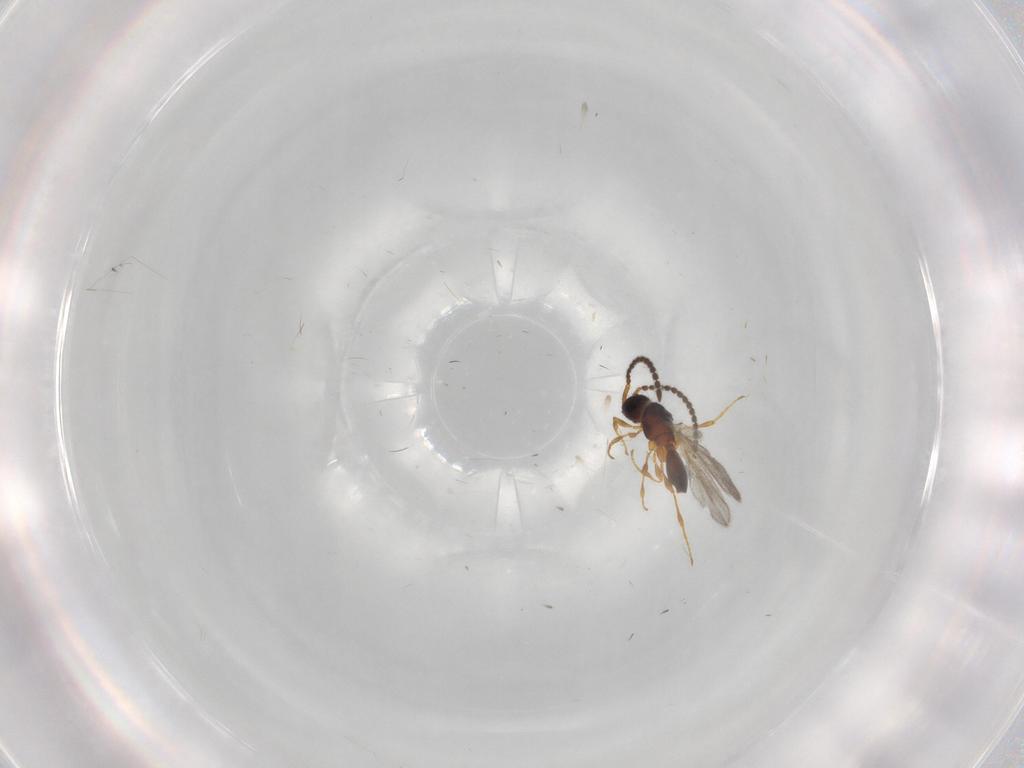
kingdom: Animalia
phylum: Arthropoda
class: Insecta
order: Hymenoptera
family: Diapriidae
